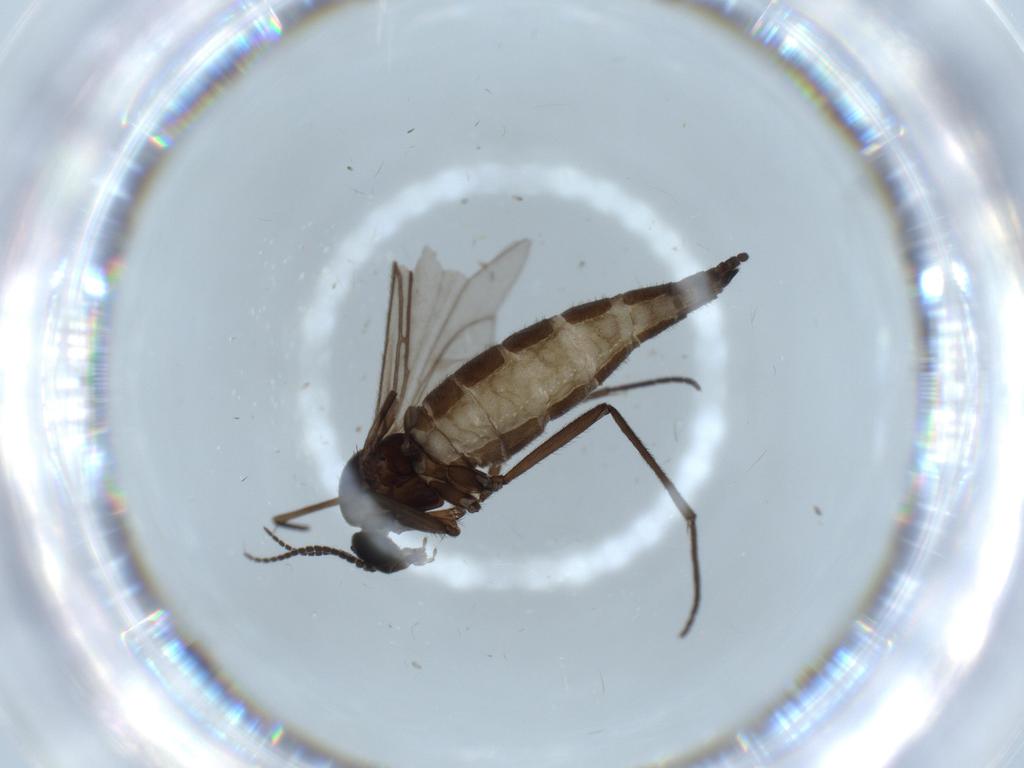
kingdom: Animalia
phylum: Arthropoda
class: Insecta
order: Diptera
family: Sciaridae
